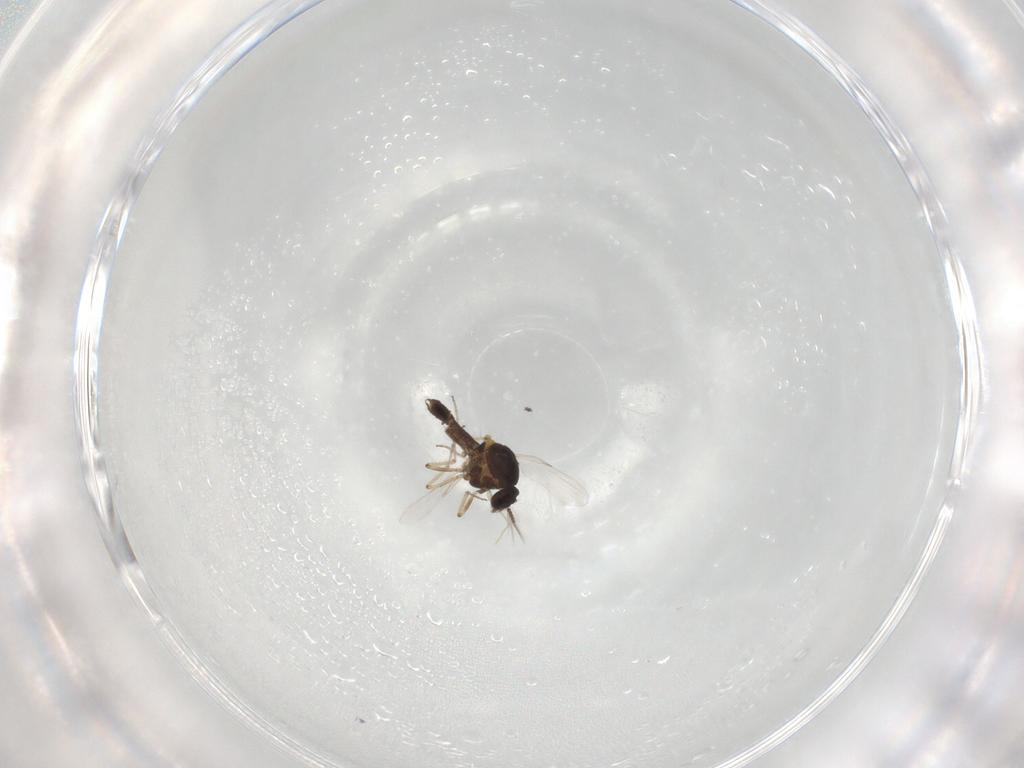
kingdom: Animalia
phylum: Arthropoda
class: Insecta
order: Diptera
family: Ceratopogonidae
